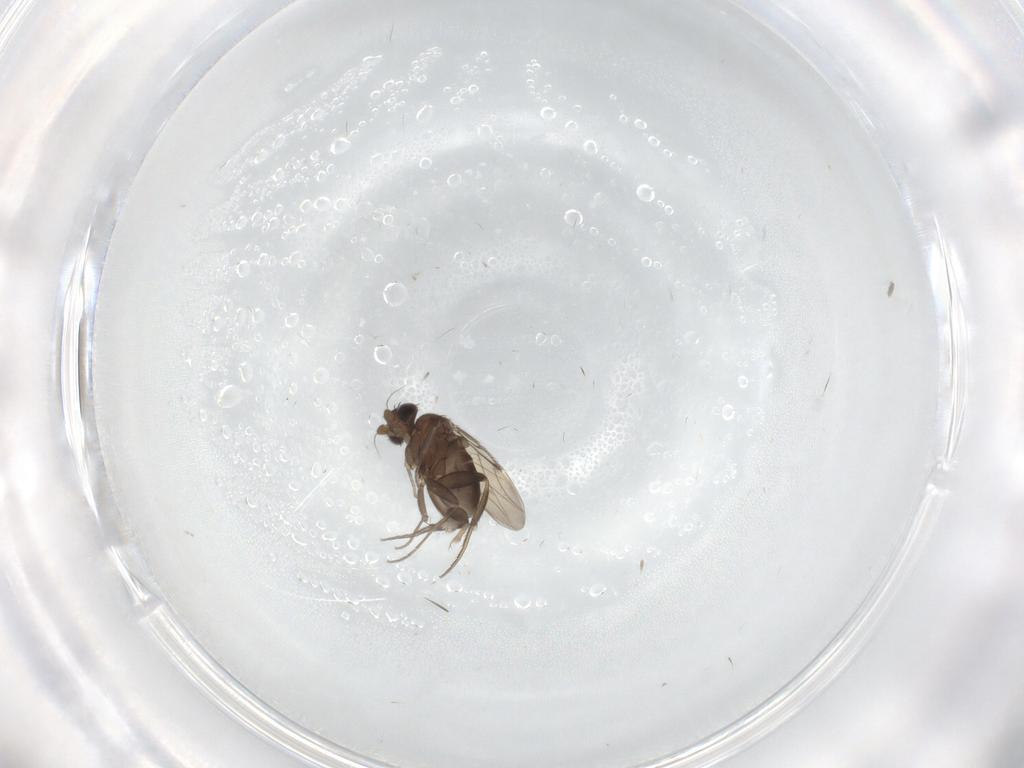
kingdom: Animalia
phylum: Arthropoda
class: Insecta
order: Diptera
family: Phoridae
